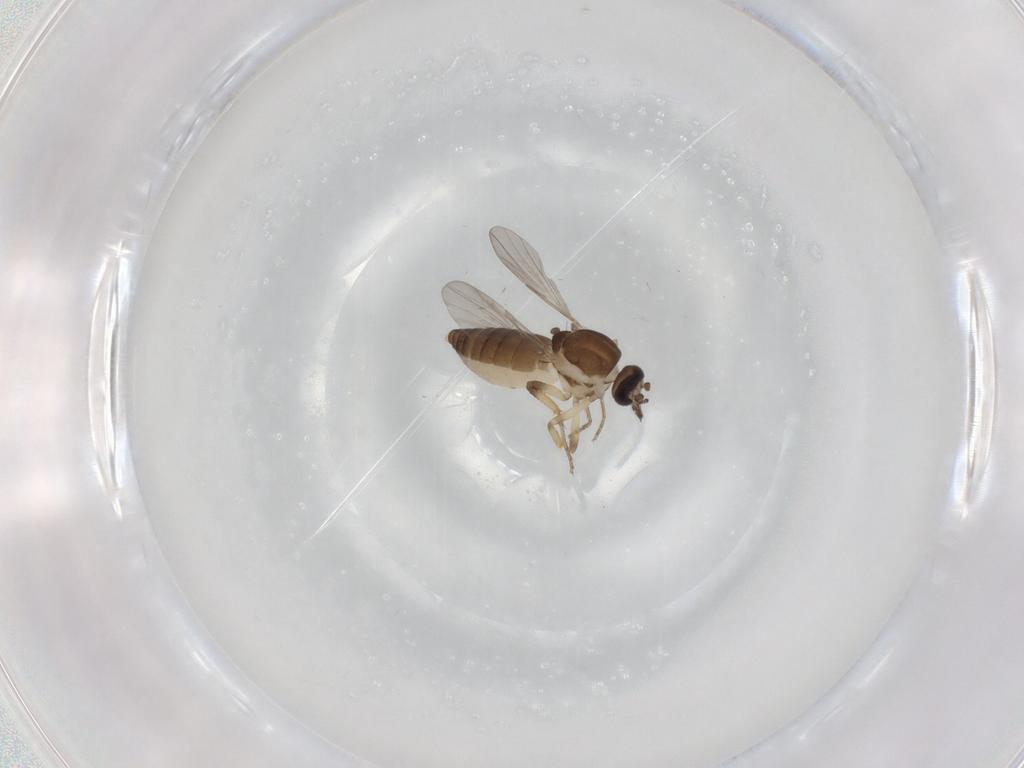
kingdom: Animalia
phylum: Arthropoda
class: Insecta
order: Diptera
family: Ceratopogonidae
